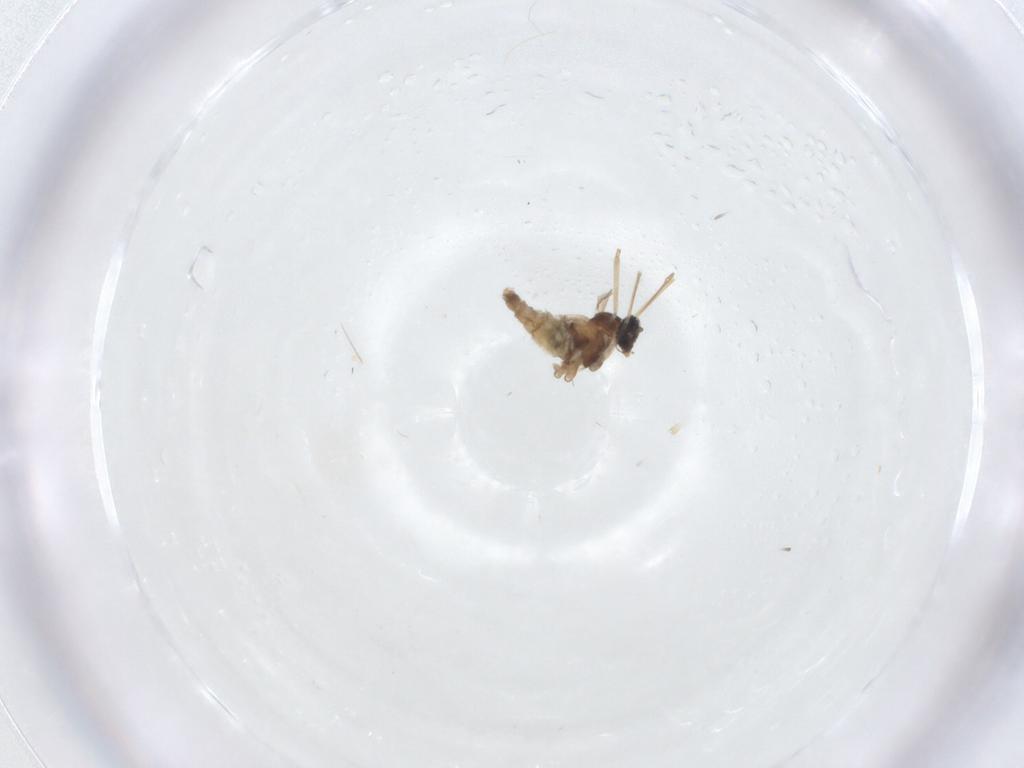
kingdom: Animalia
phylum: Arthropoda
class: Insecta
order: Diptera
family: Cecidomyiidae
